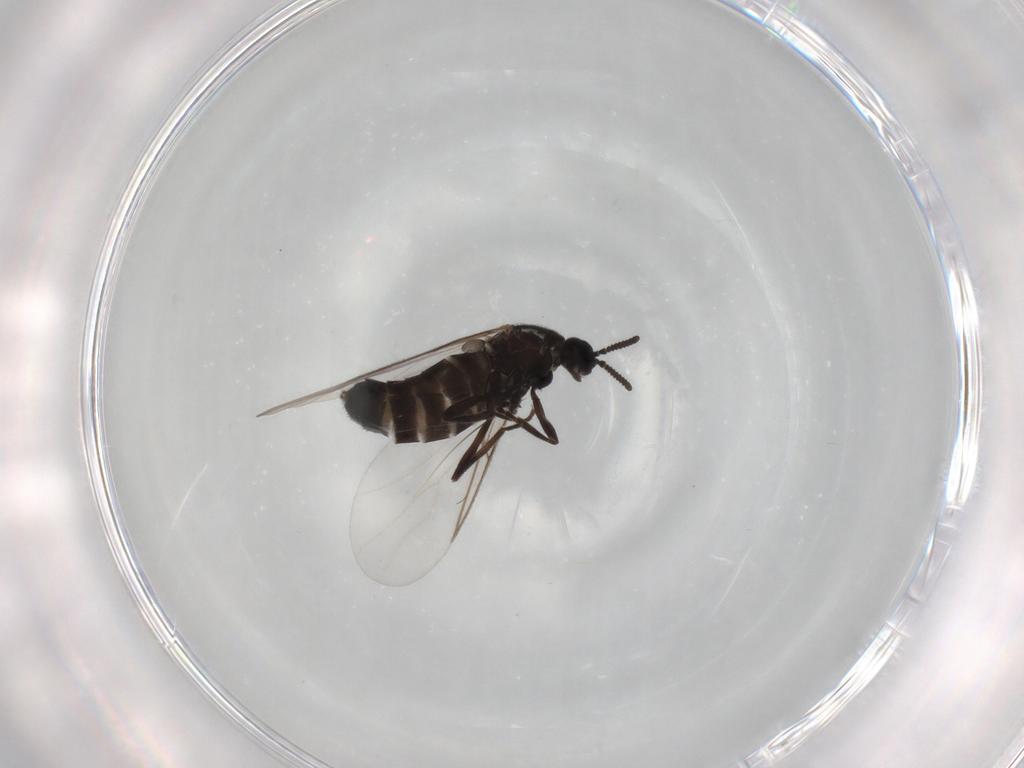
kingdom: Animalia
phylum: Arthropoda
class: Insecta
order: Diptera
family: Scatopsidae
